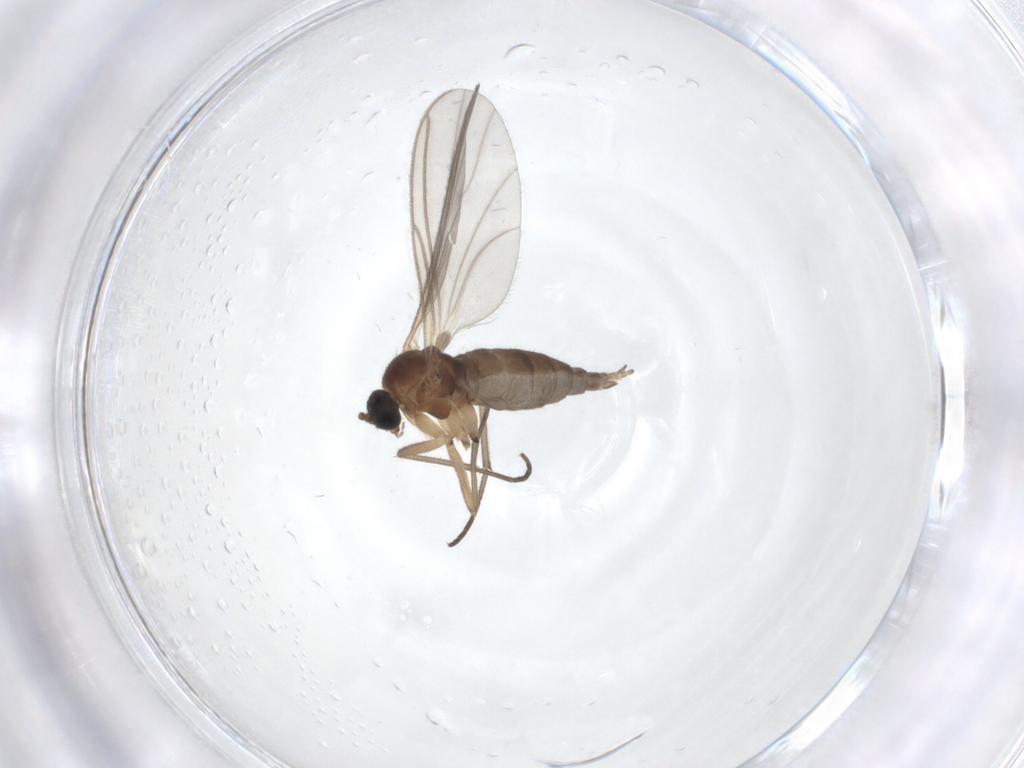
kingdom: Animalia
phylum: Arthropoda
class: Insecta
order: Diptera
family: Sciaridae
